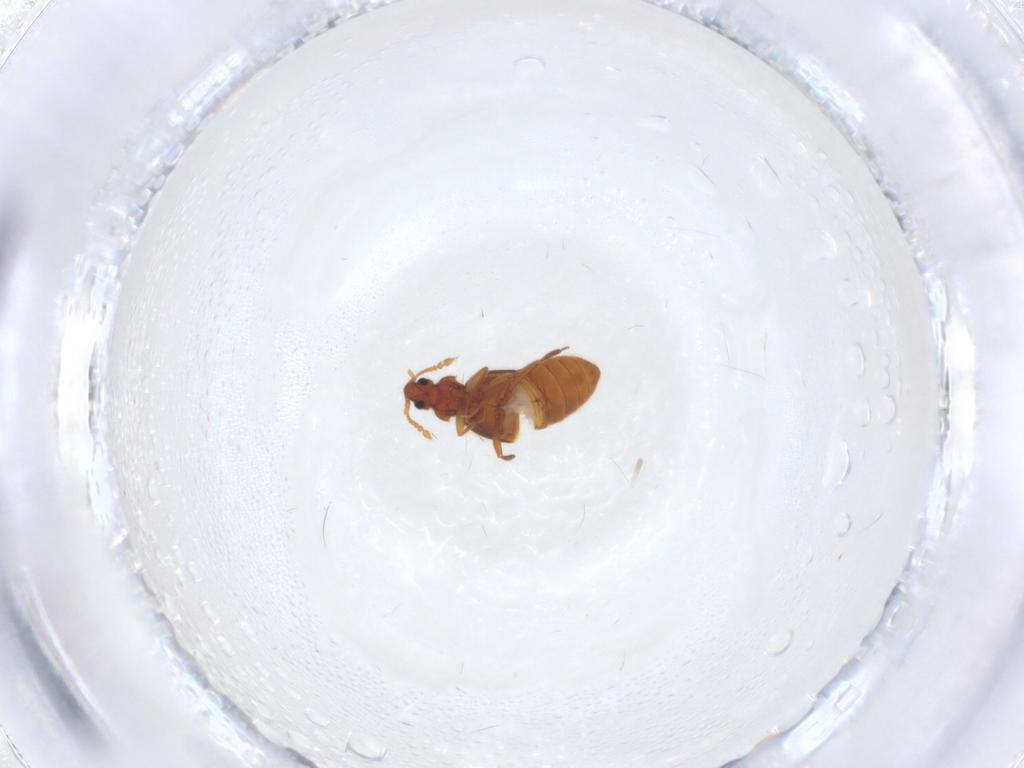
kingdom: Animalia
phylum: Arthropoda
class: Insecta
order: Coleoptera
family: Staphylinidae
